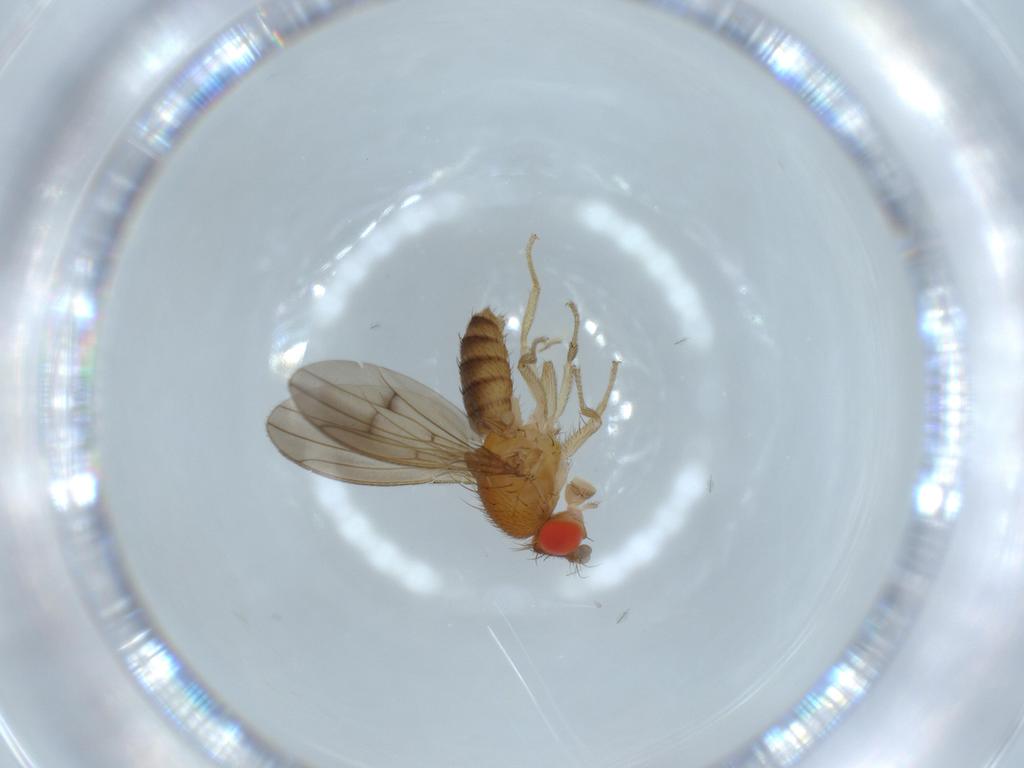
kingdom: Animalia
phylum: Arthropoda
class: Insecta
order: Diptera
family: Drosophilidae
